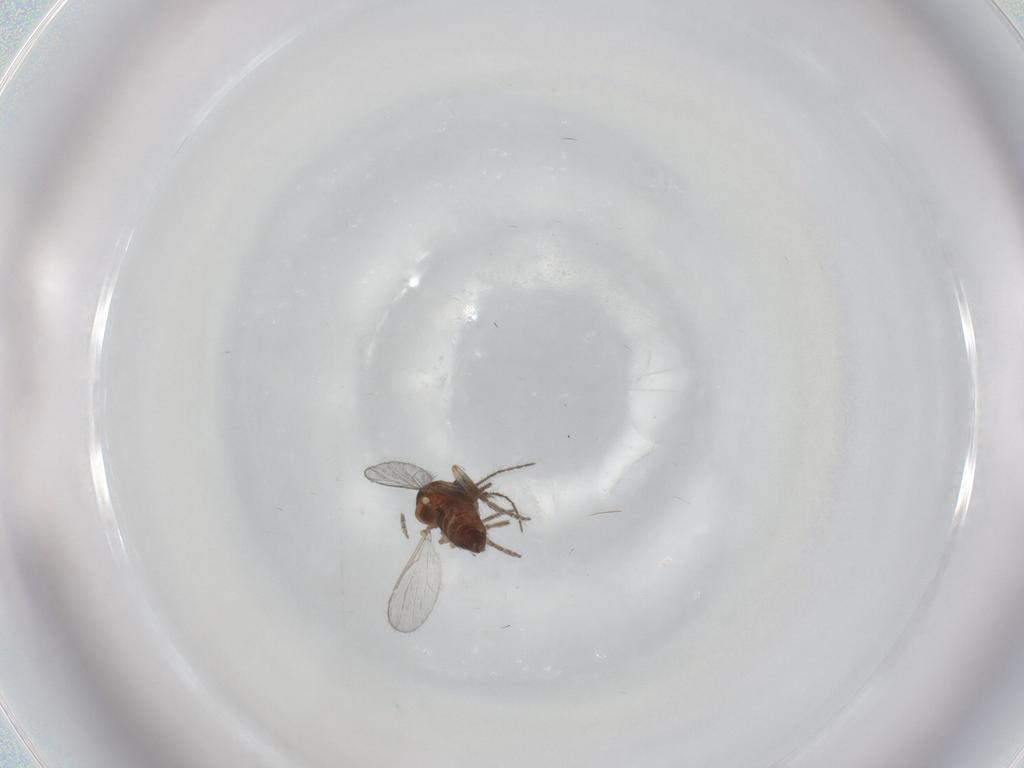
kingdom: Animalia
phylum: Arthropoda
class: Insecta
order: Diptera
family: Ceratopogonidae
